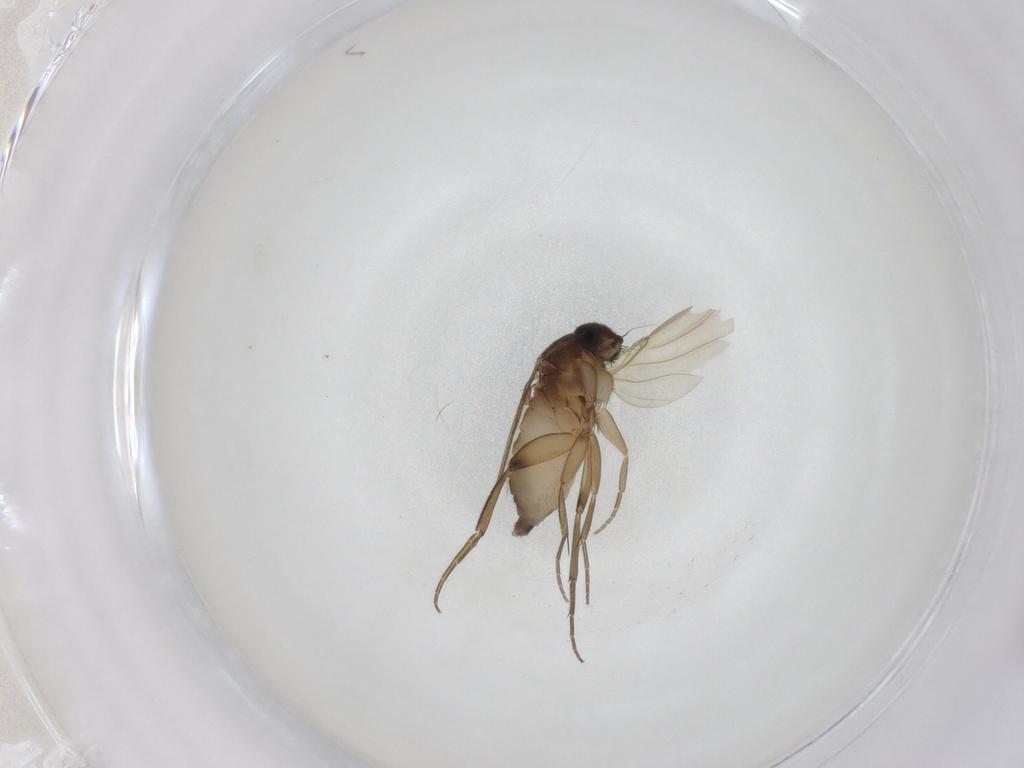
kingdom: Animalia
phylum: Arthropoda
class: Insecta
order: Diptera
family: Phoridae
